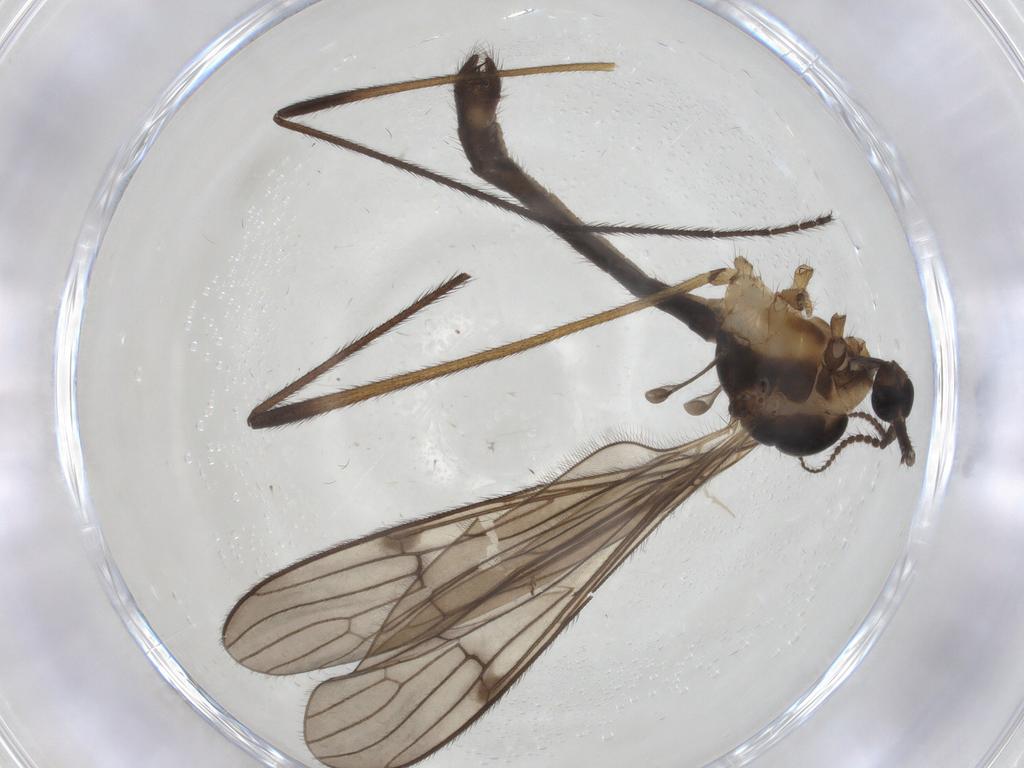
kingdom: Animalia
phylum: Arthropoda
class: Insecta
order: Diptera
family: Limoniidae
